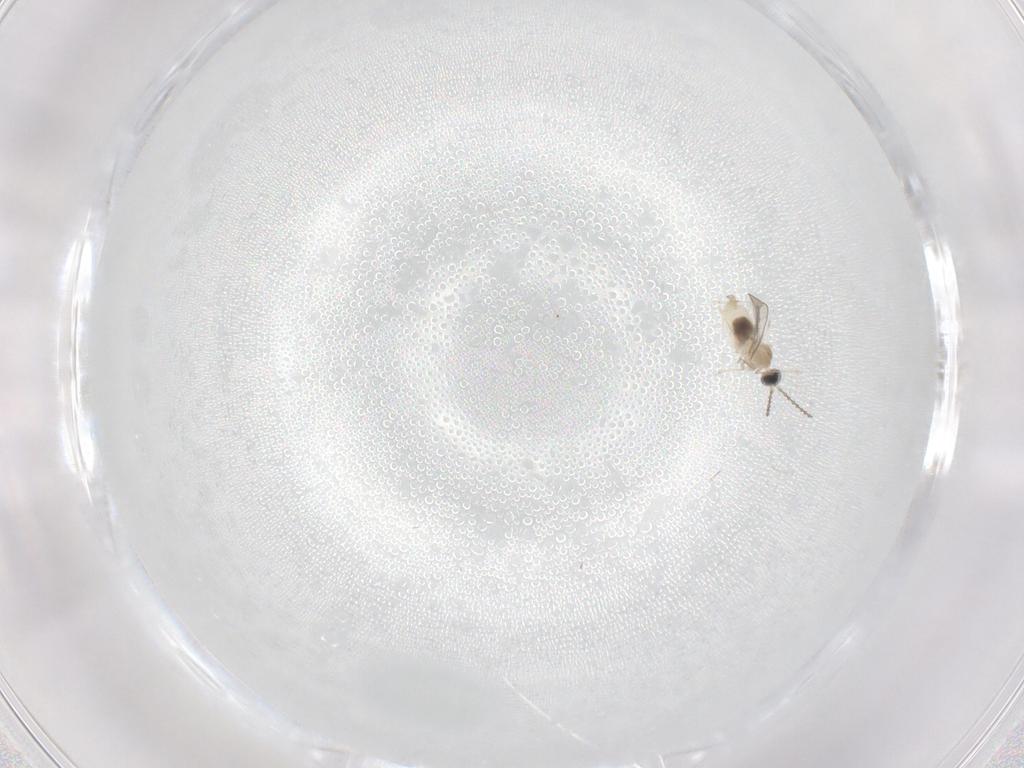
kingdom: Animalia
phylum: Arthropoda
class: Insecta
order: Diptera
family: Cecidomyiidae
